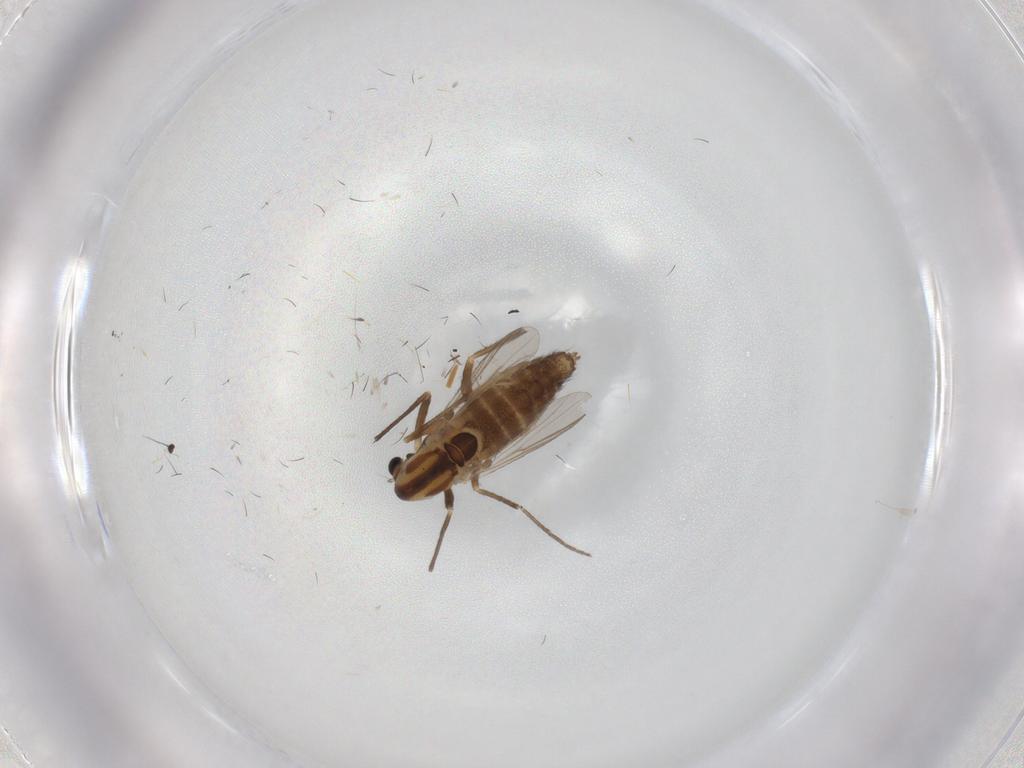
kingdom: Animalia
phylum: Arthropoda
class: Insecta
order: Diptera
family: Chironomidae
